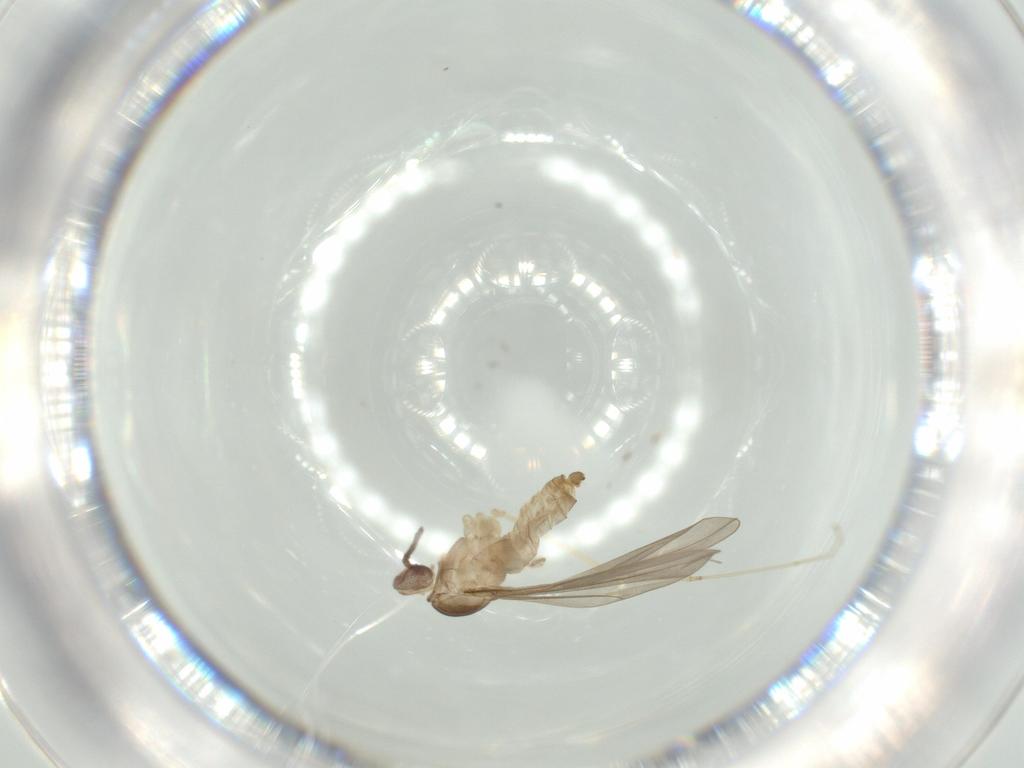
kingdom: Animalia
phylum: Arthropoda
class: Insecta
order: Diptera
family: Cecidomyiidae
